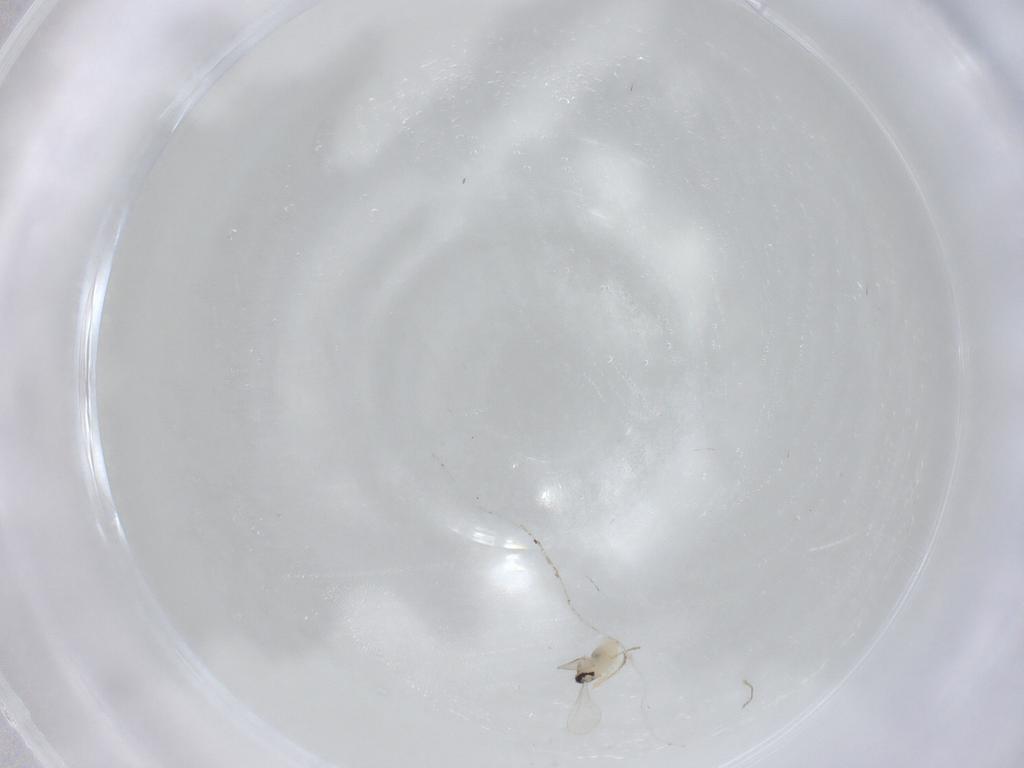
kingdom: Animalia
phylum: Arthropoda
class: Insecta
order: Diptera
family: Cecidomyiidae
